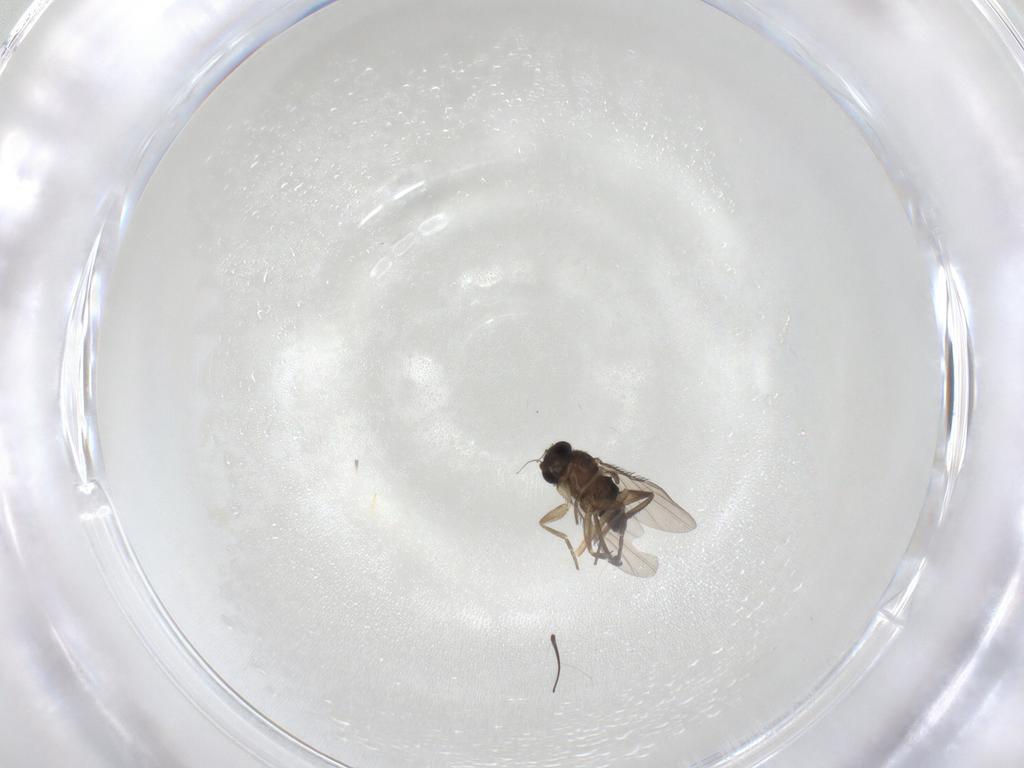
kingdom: Animalia
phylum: Arthropoda
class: Insecta
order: Diptera
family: Phoridae
